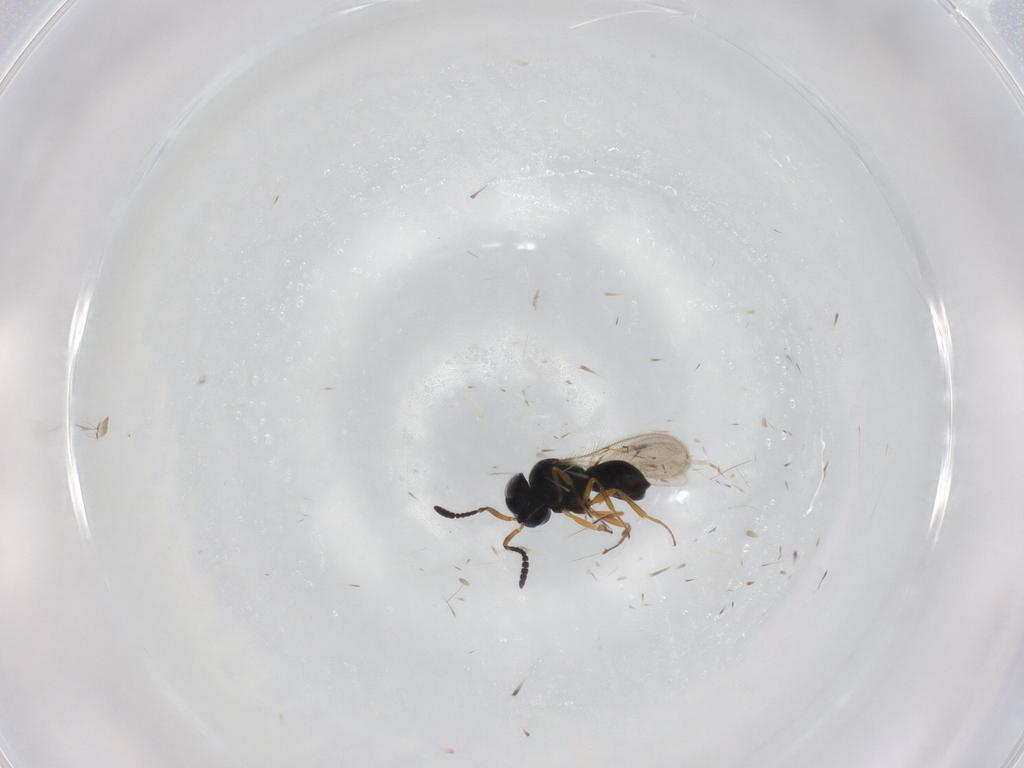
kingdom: Animalia
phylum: Arthropoda
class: Insecta
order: Hymenoptera
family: Scelionidae
